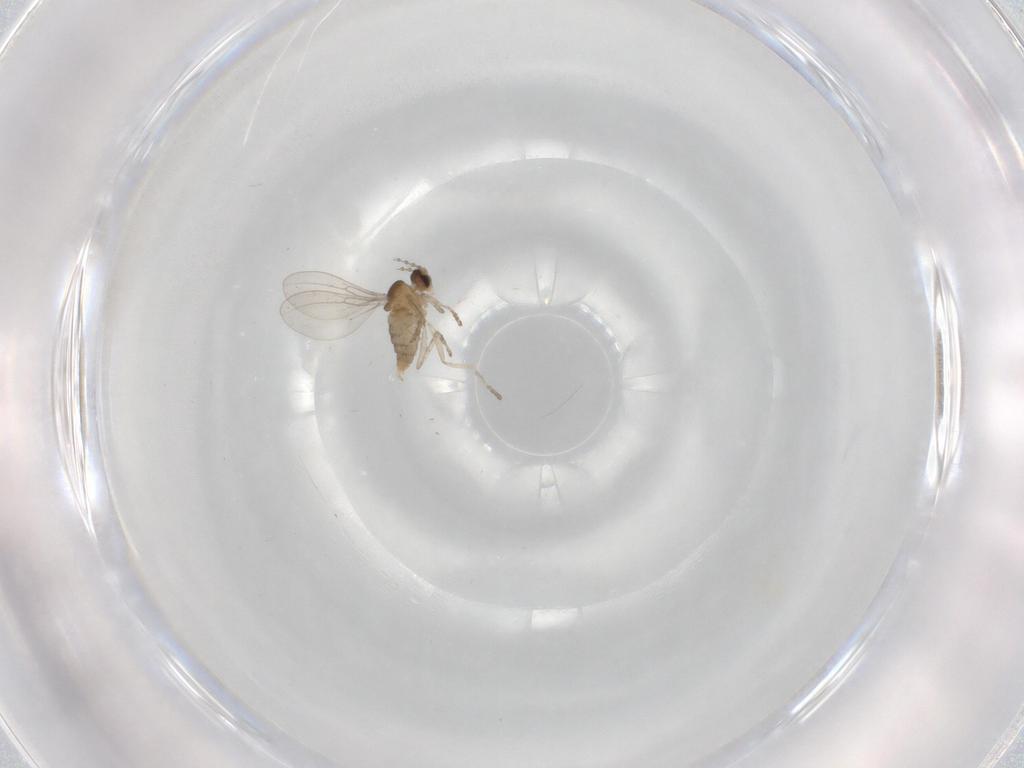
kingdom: Animalia
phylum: Arthropoda
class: Insecta
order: Diptera
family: Cecidomyiidae
